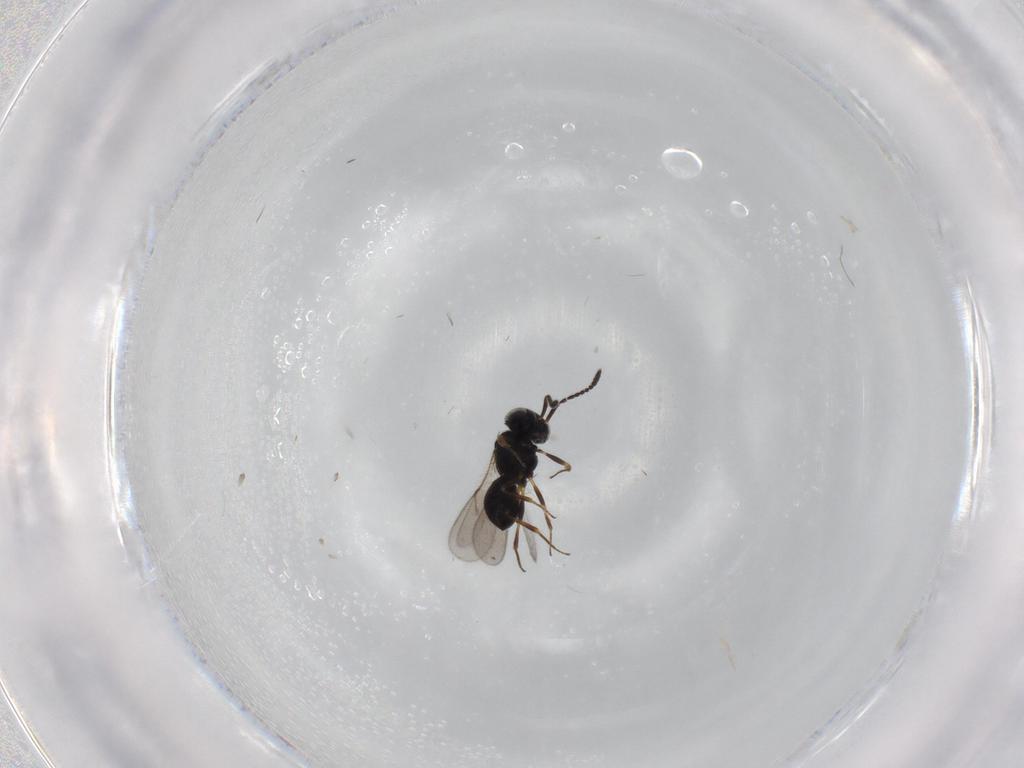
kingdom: Animalia
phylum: Arthropoda
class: Insecta
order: Hymenoptera
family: Scelionidae
